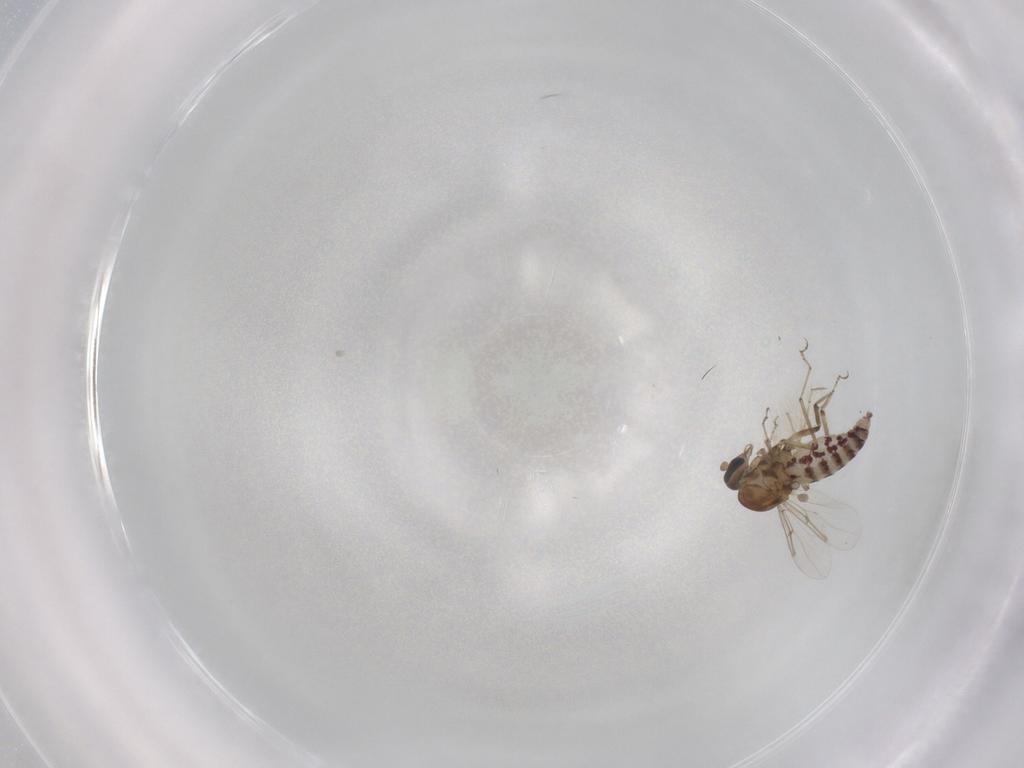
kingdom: Animalia
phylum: Arthropoda
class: Insecta
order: Diptera
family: Ceratopogonidae
